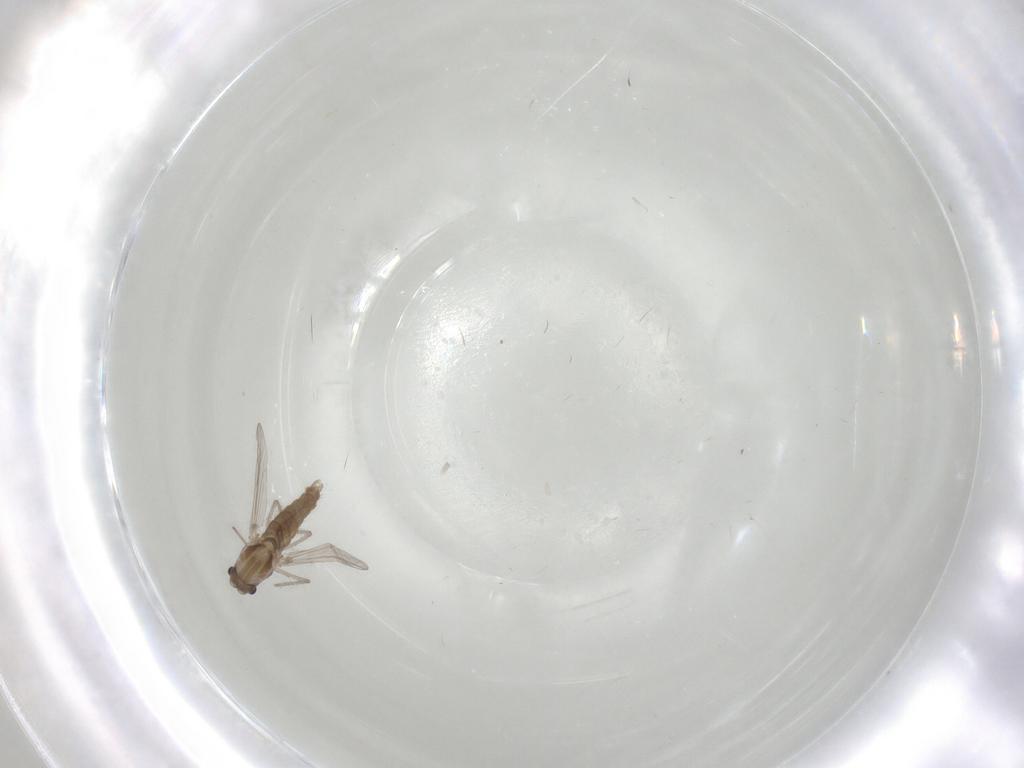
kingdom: Animalia
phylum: Arthropoda
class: Insecta
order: Diptera
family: Chironomidae
